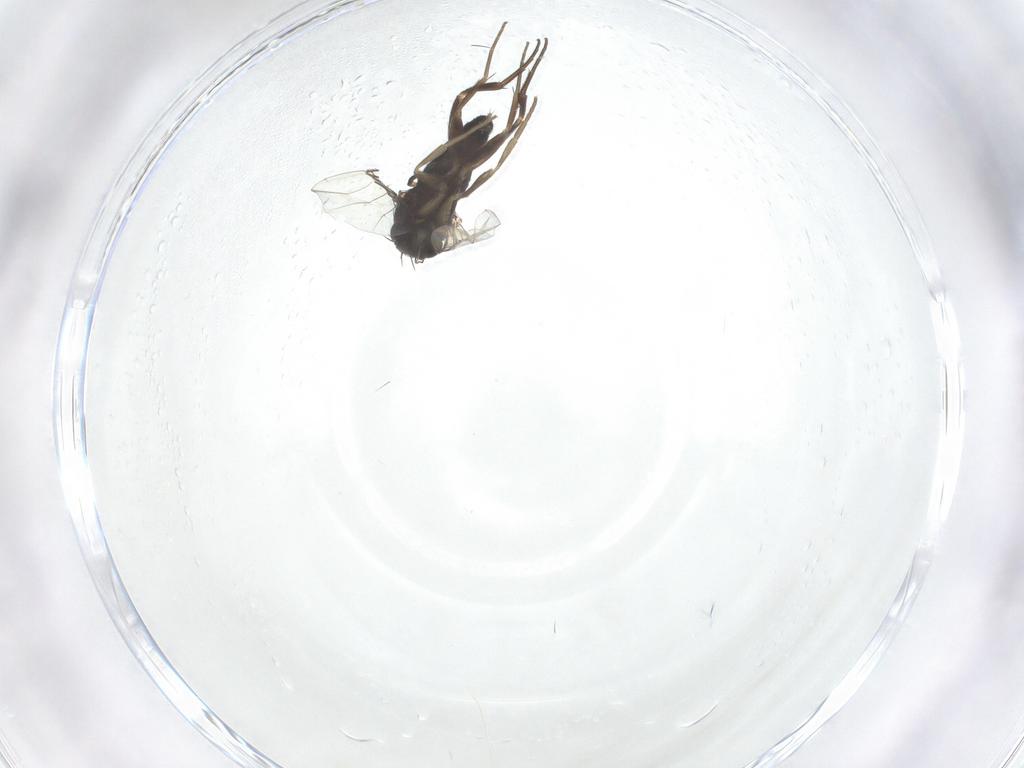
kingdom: Animalia
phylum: Arthropoda
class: Insecta
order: Diptera
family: Phoridae
